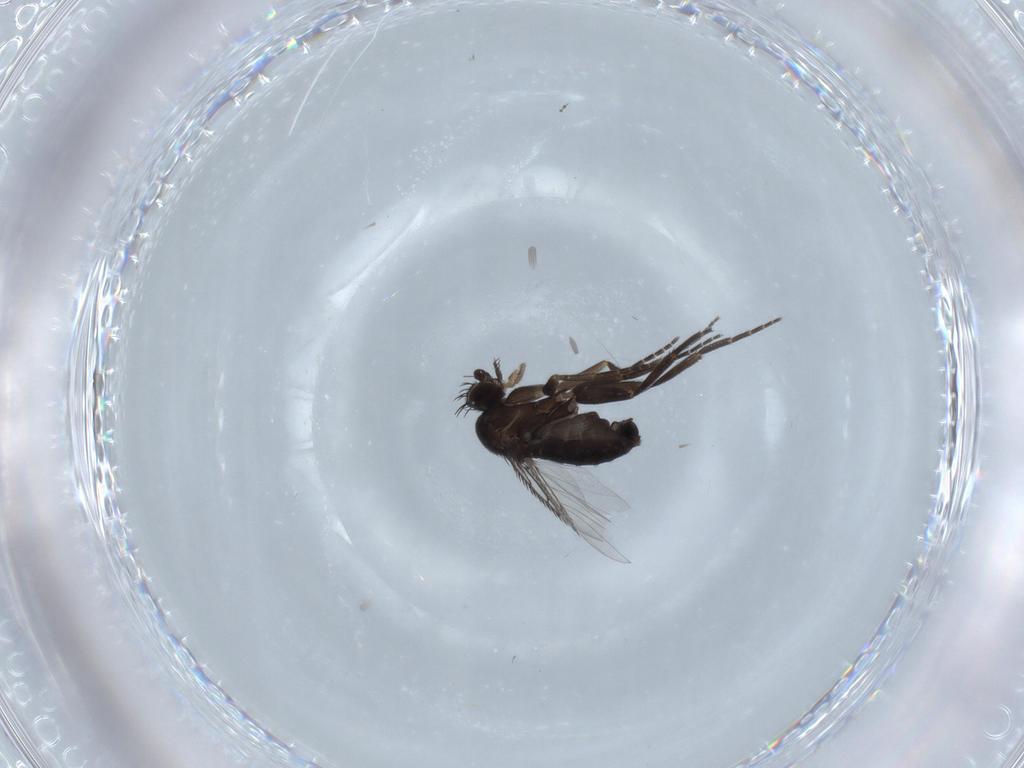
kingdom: Animalia
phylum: Arthropoda
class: Insecta
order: Diptera
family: Phoridae
